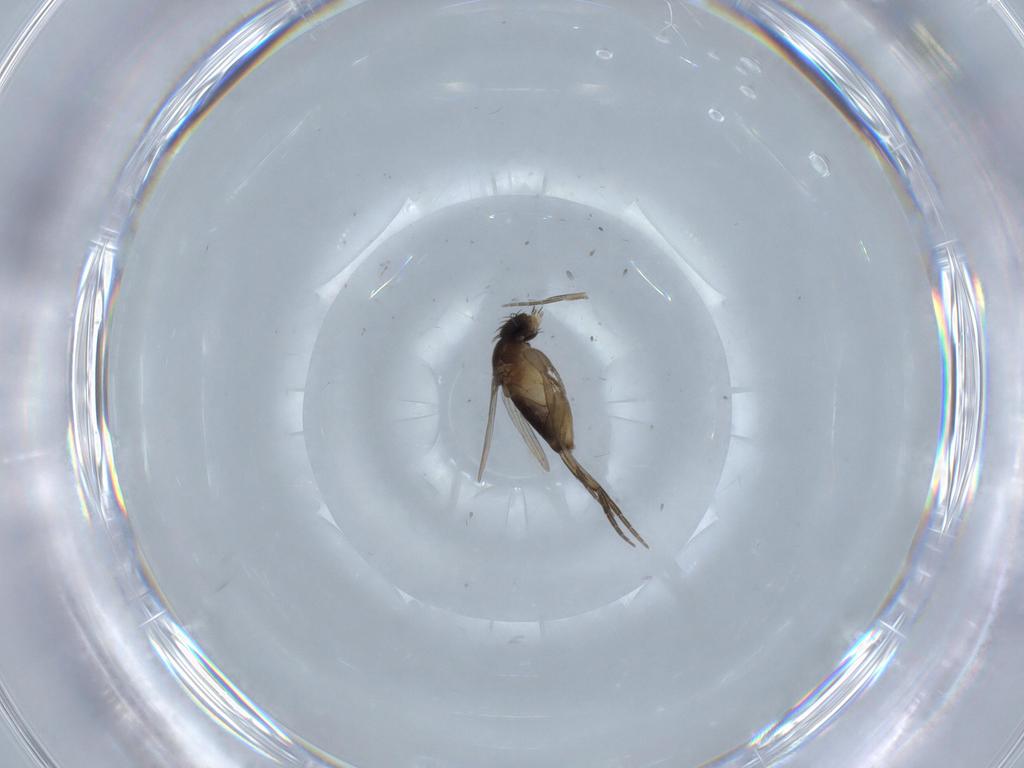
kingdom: Animalia
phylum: Arthropoda
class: Insecta
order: Diptera
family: Phoridae
